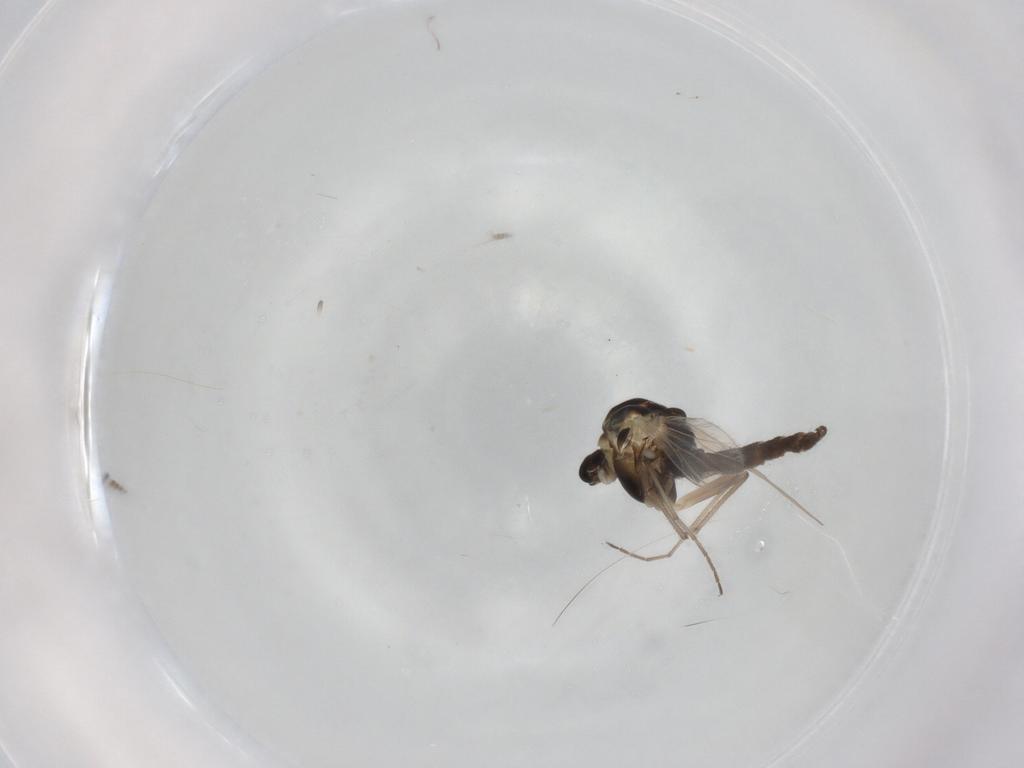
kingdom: Animalia
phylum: Arthropoda
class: Insecta
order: Diptera
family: Chironomidae
